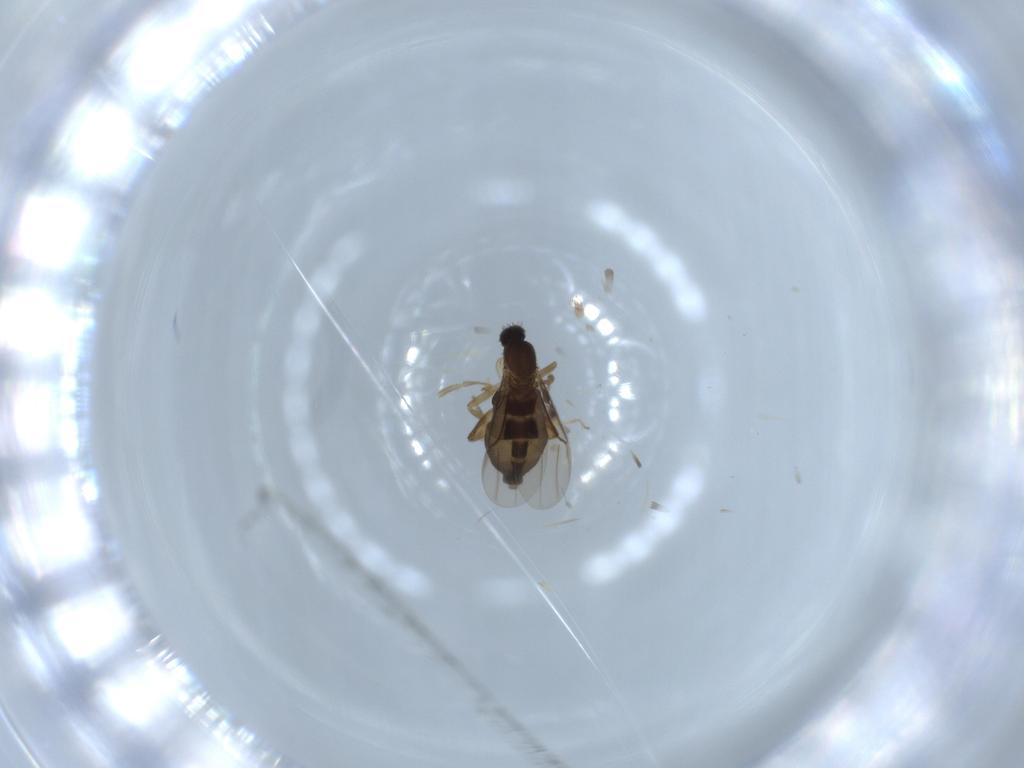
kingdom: Animalia
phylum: Arthropoda
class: Insecta
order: Diptera
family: Phoridae
